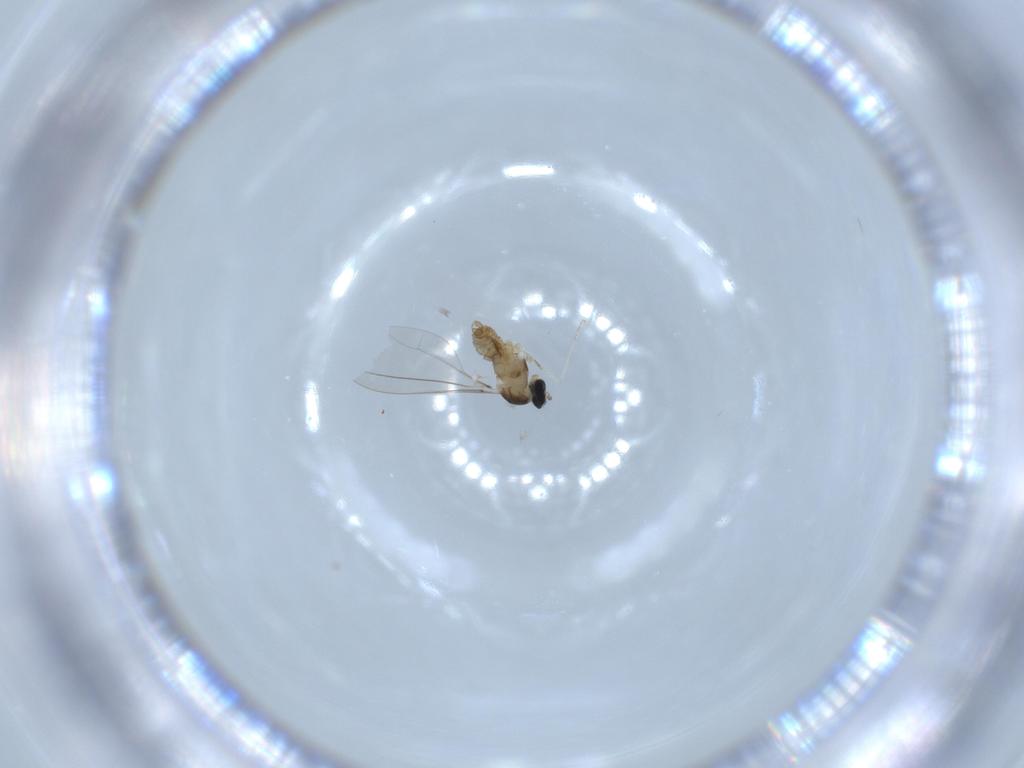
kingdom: Animalia
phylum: Arthropoda
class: Insecta
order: Diptera
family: Cecidomyiidae
